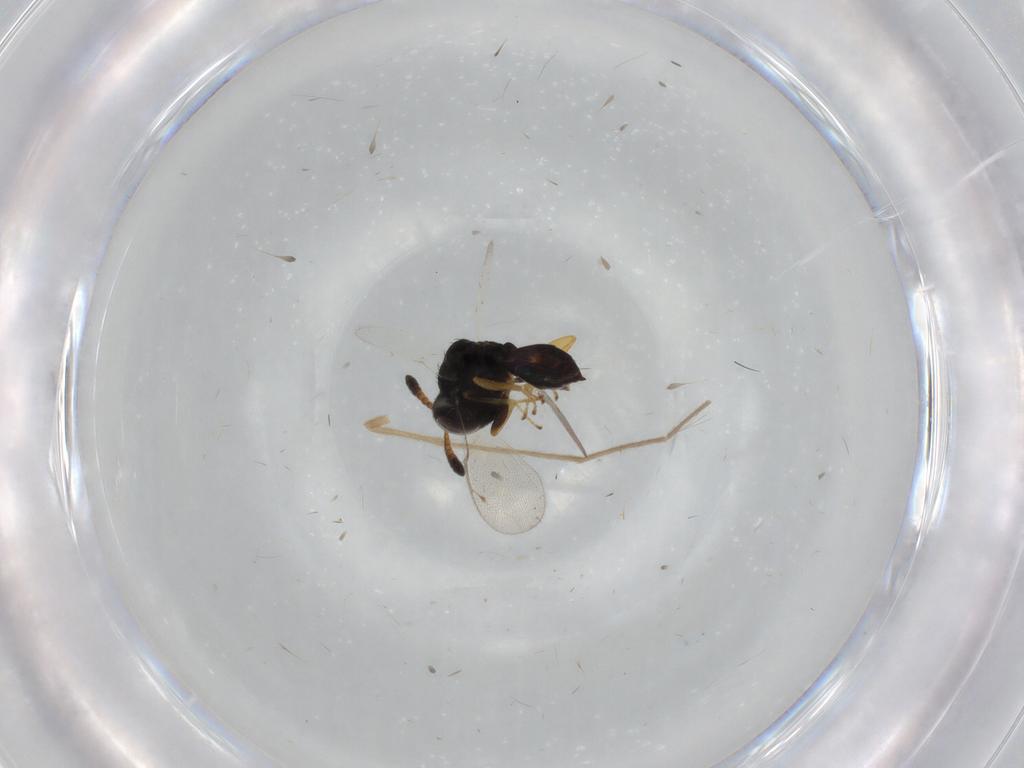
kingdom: Animalia
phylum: Arthropoda
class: Insecta
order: Hymenoptera
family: Pteromalidae
